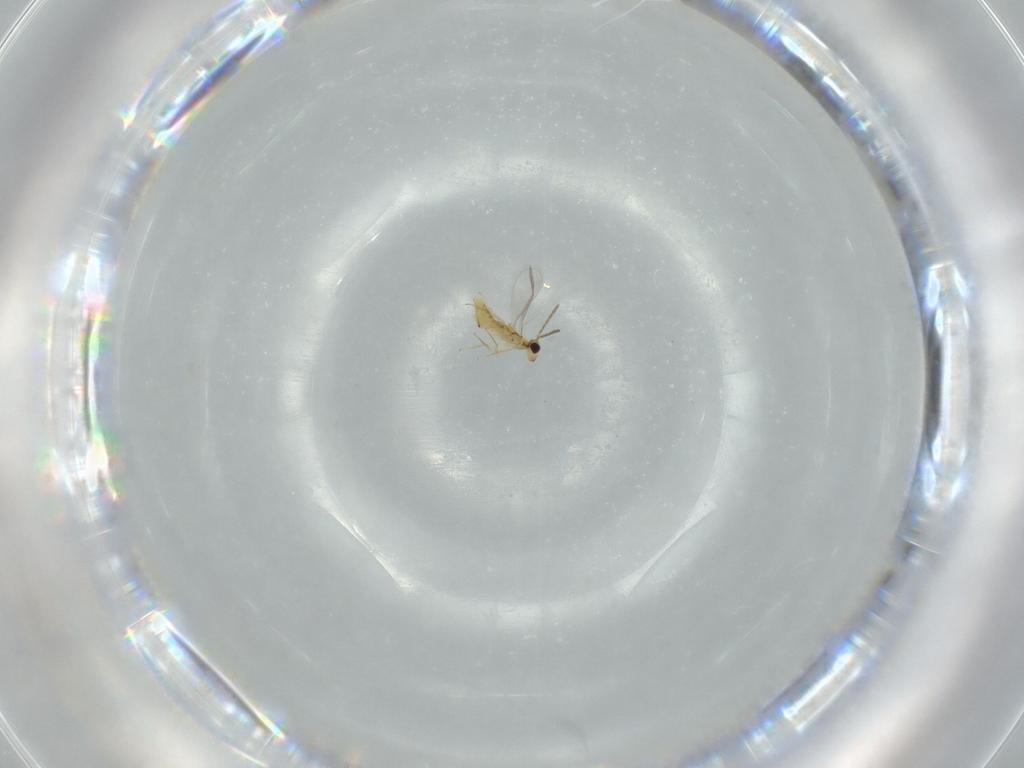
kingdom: Animalia
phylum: Arthropoda
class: Insecta
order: Hymenoptera
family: Aphelinidae
